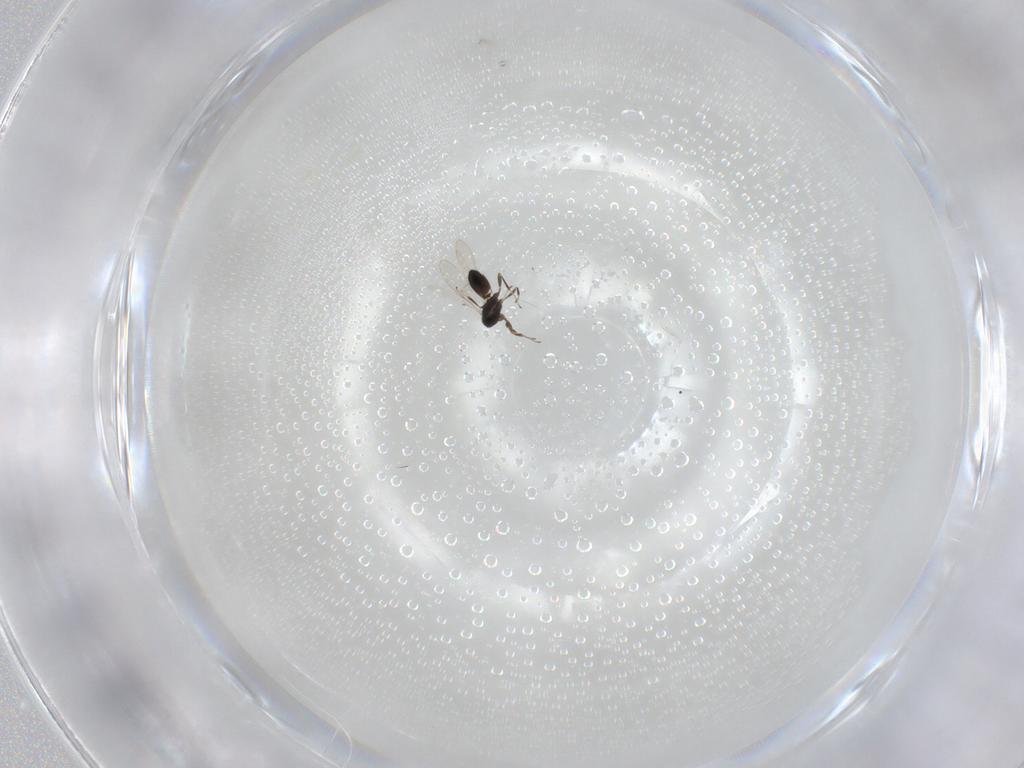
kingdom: Animalia
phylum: Arthropoda
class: Insecta
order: Hymenoptera
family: Scelionidae
